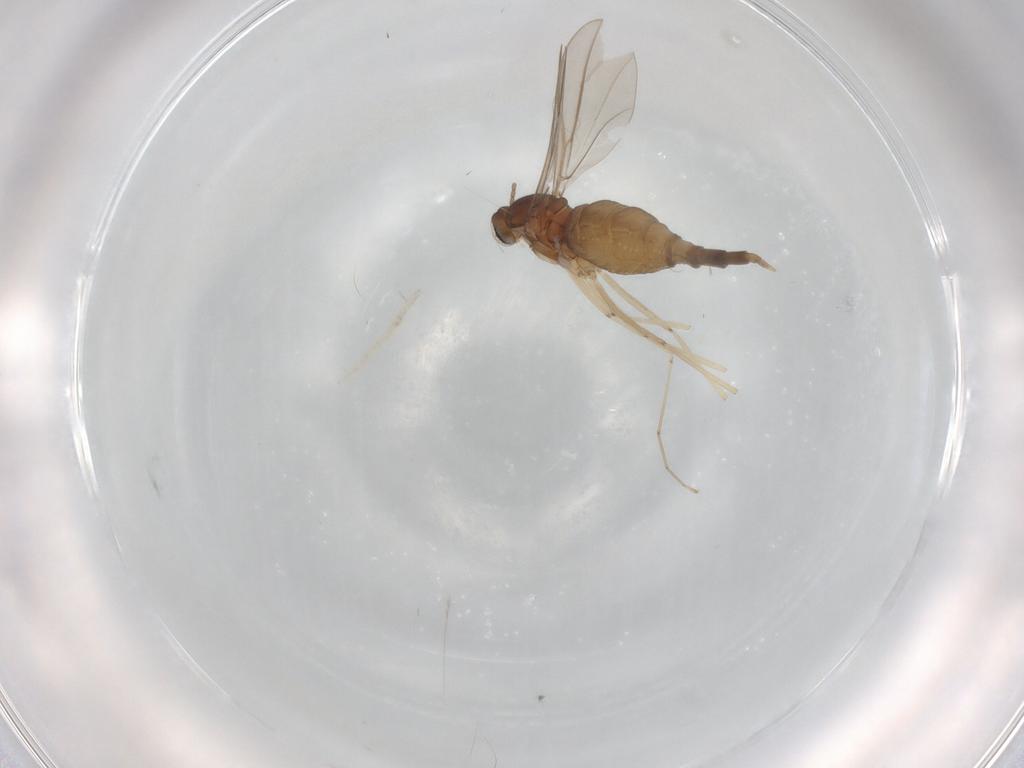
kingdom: Animalia
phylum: Arthropoda
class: Insecta
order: Diptera
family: Cecidomyiidae
